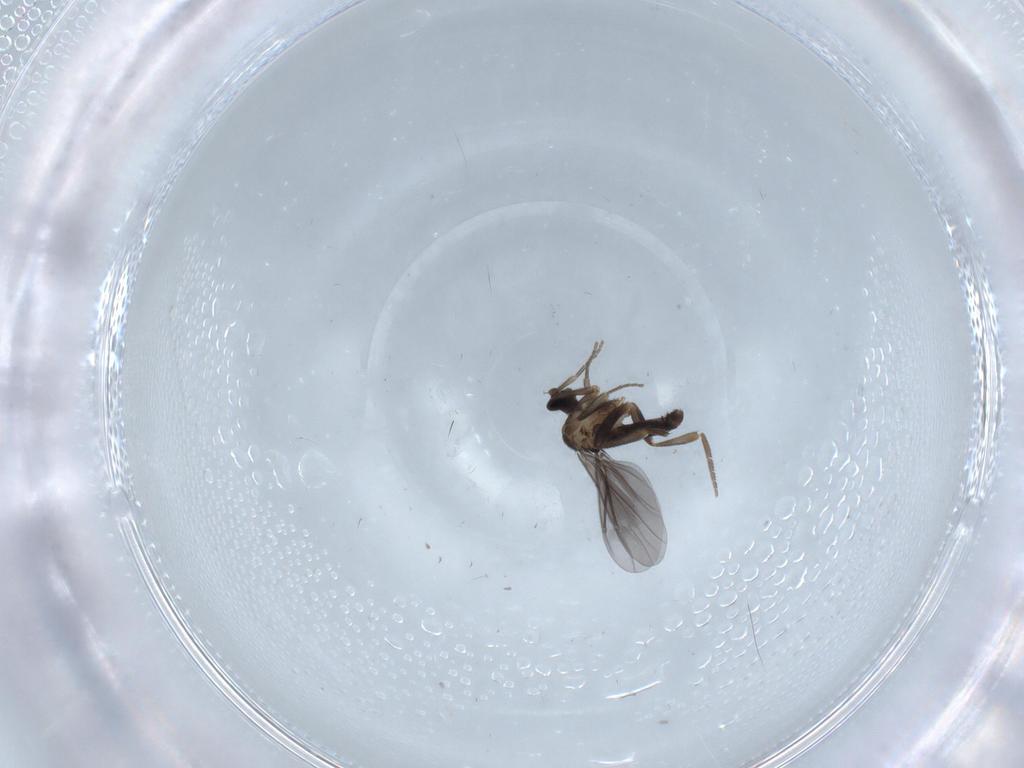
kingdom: Animalia
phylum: Arthropoda
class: Insecta
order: Diptera
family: Phoridae
